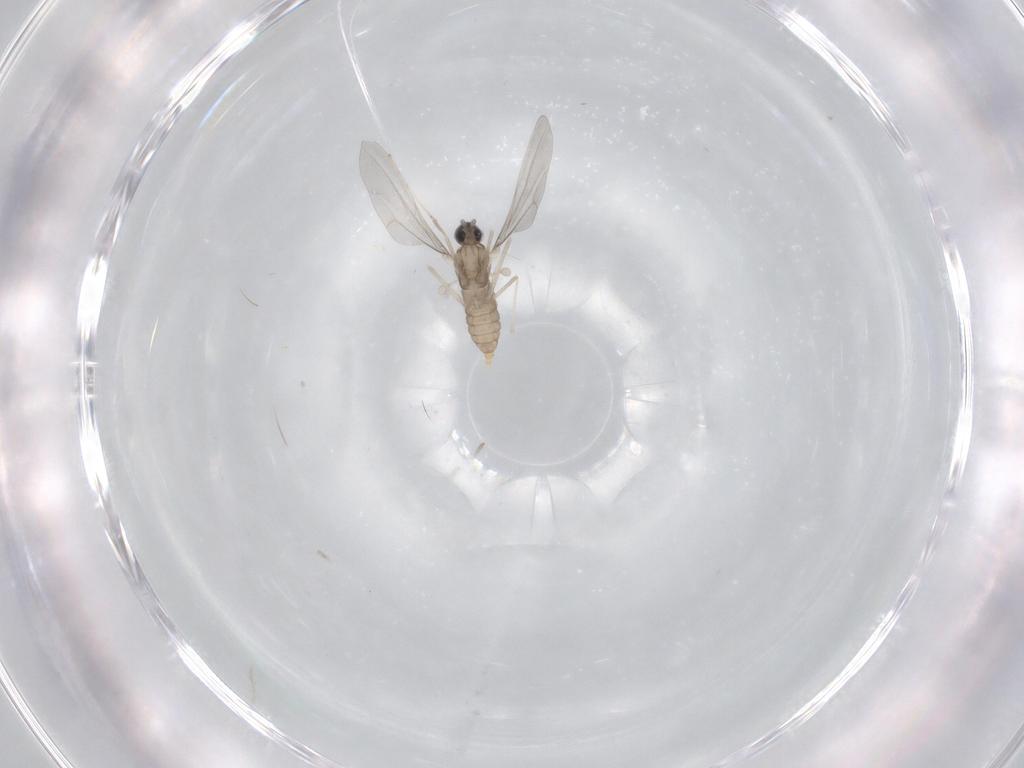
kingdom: Animalia
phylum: Arthropoda
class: Insecta
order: Diptera
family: Cecidomyiidae
